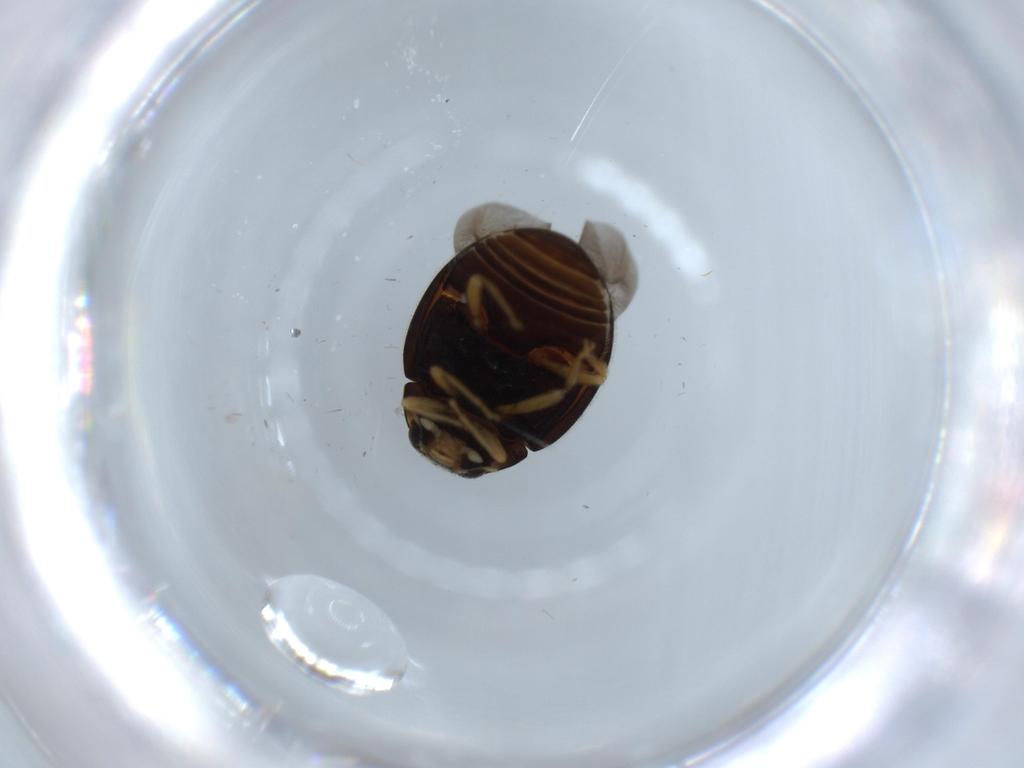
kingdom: Animalia
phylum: Arthropoda
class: Insecta
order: Coleoptera
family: Coccinellidae
